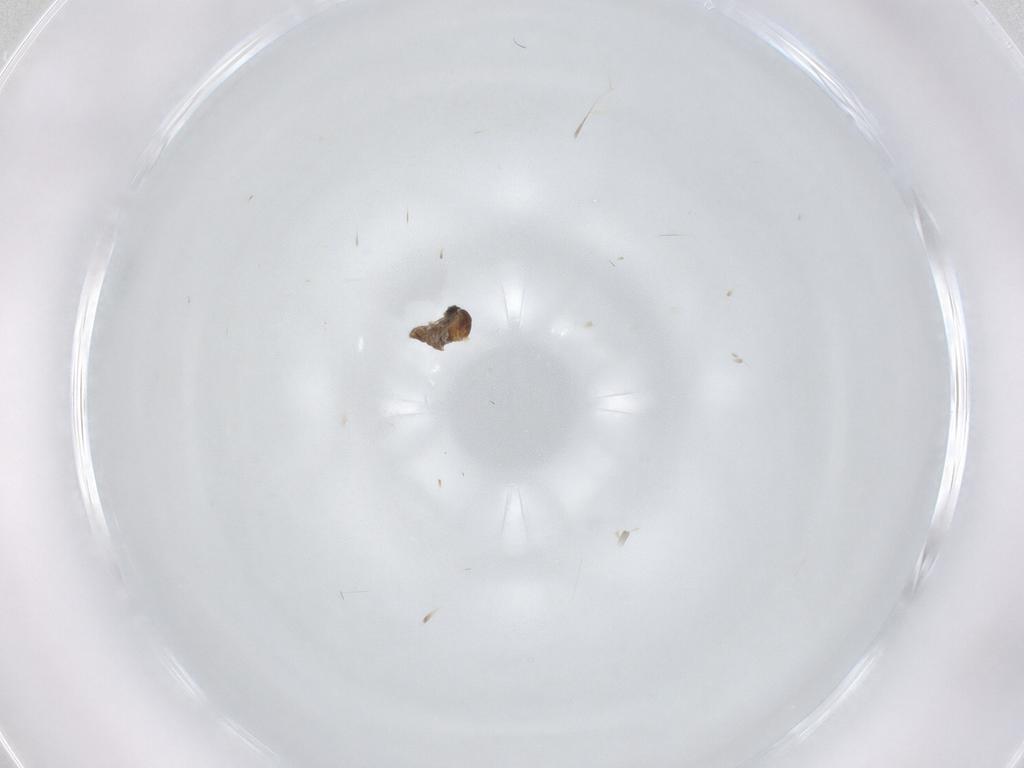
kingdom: Animalia
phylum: Arthropoda
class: Insecta
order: Diptera
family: Cecidomyiidae
